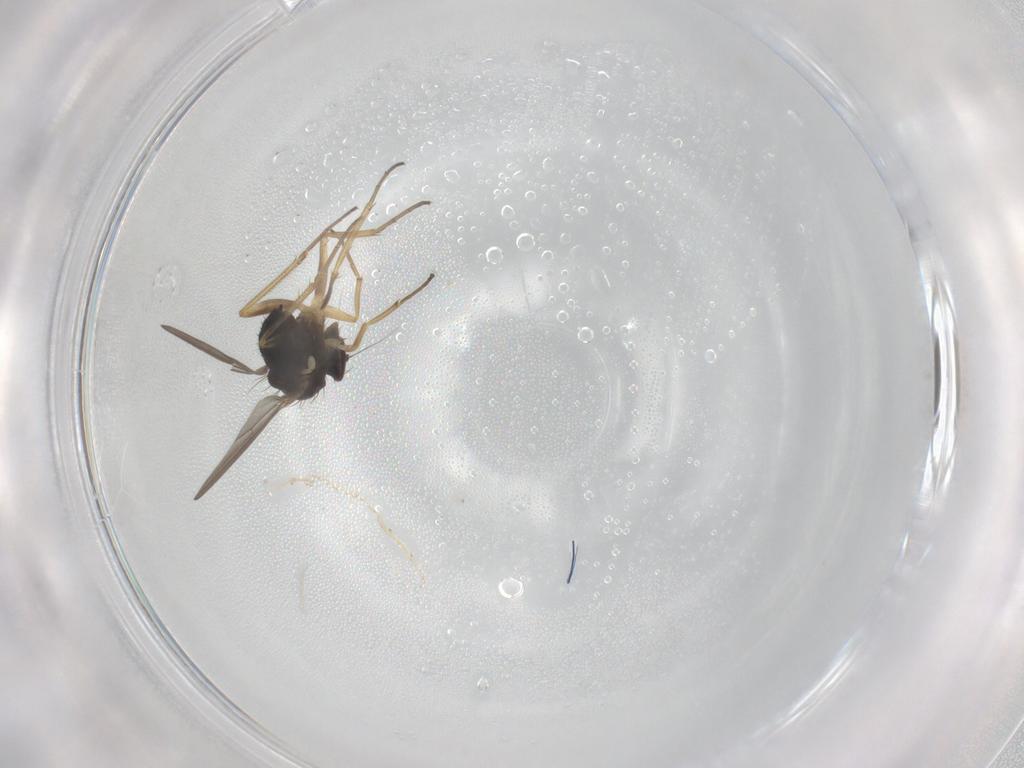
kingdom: Animalia
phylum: Arthropoda
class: Insecta
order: Diptera
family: Dolichopodidae
